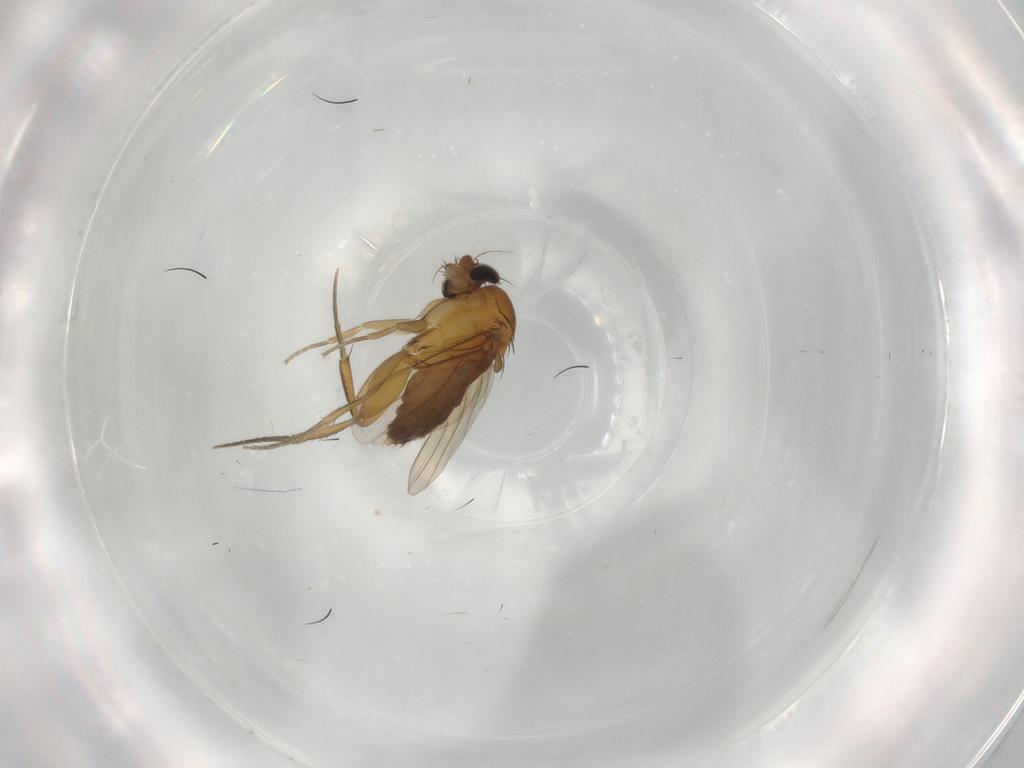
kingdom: Animalia
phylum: Arthropoda
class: Insecta
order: Diptera
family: Phoridae
